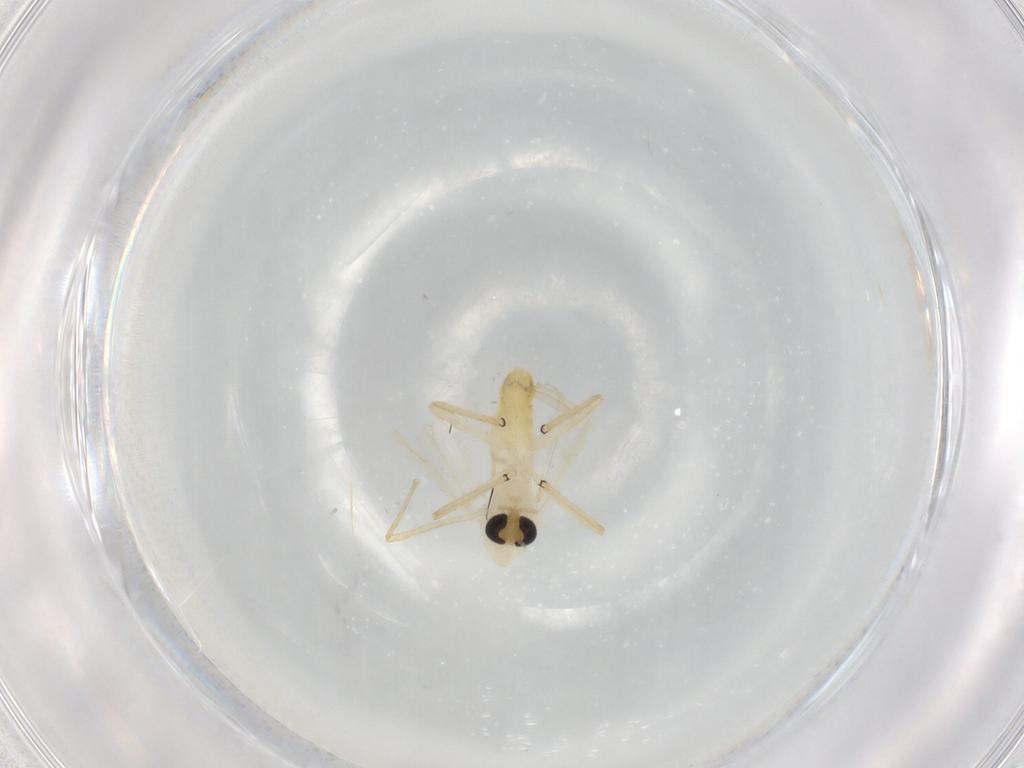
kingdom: Animalia
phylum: Arthropoda
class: Insecta
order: Diptera
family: Chironomidae
